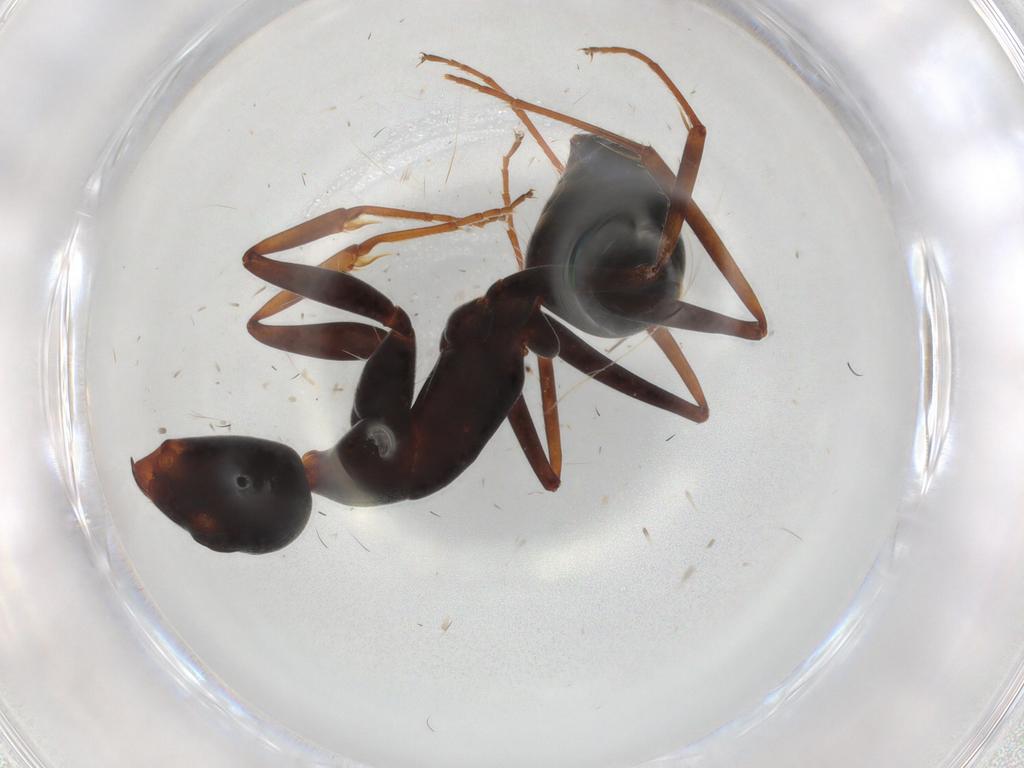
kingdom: Animalia
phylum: Arthropoda
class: Insecta
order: Hymenoptera
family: Formicidae
